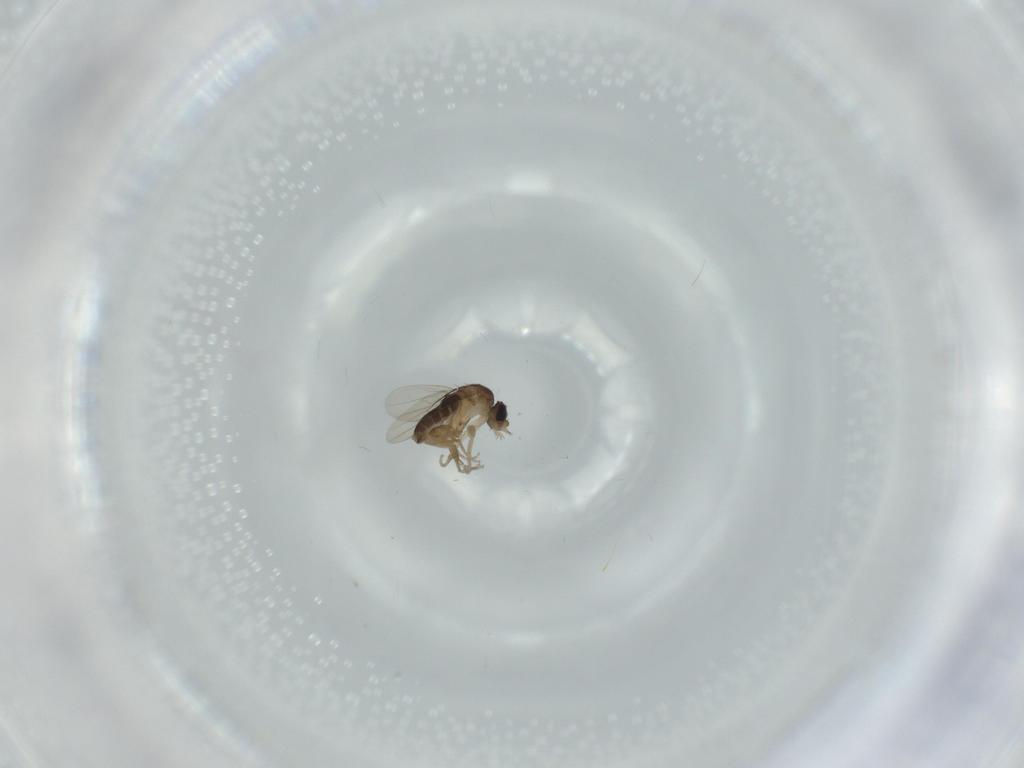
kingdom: Animalia
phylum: Arthropoda
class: Insecta
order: Diptera
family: Phoridae
